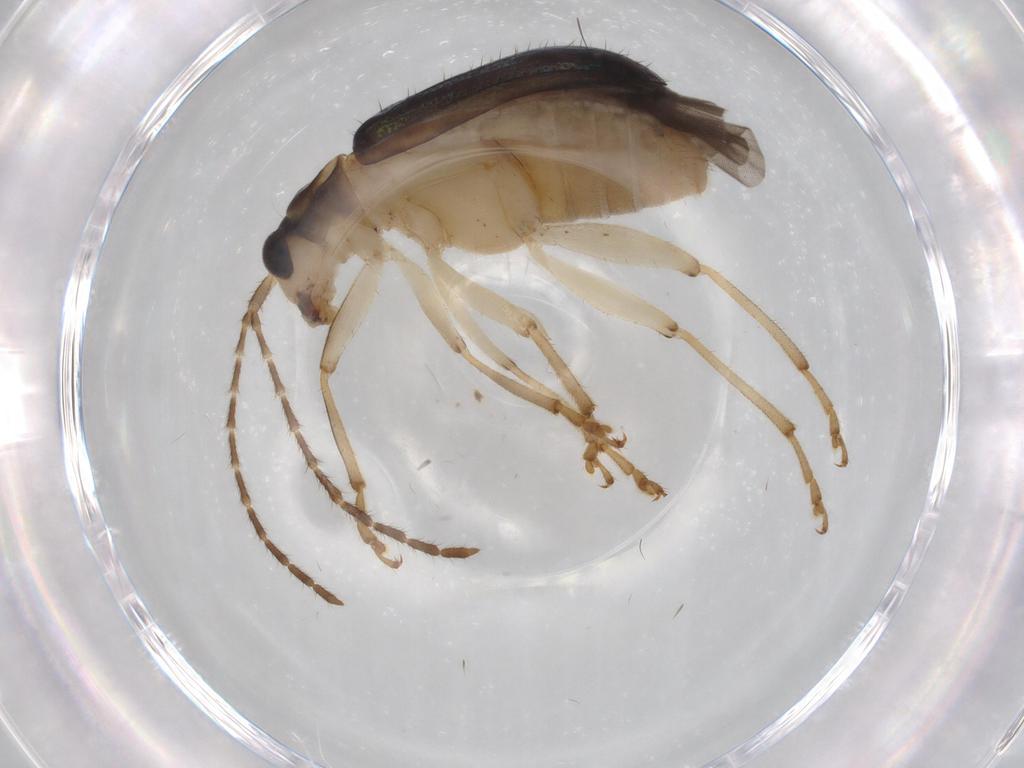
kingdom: Animalia
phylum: Arthropoda
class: Insecta
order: Coleoptera
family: Chrysomelidae
